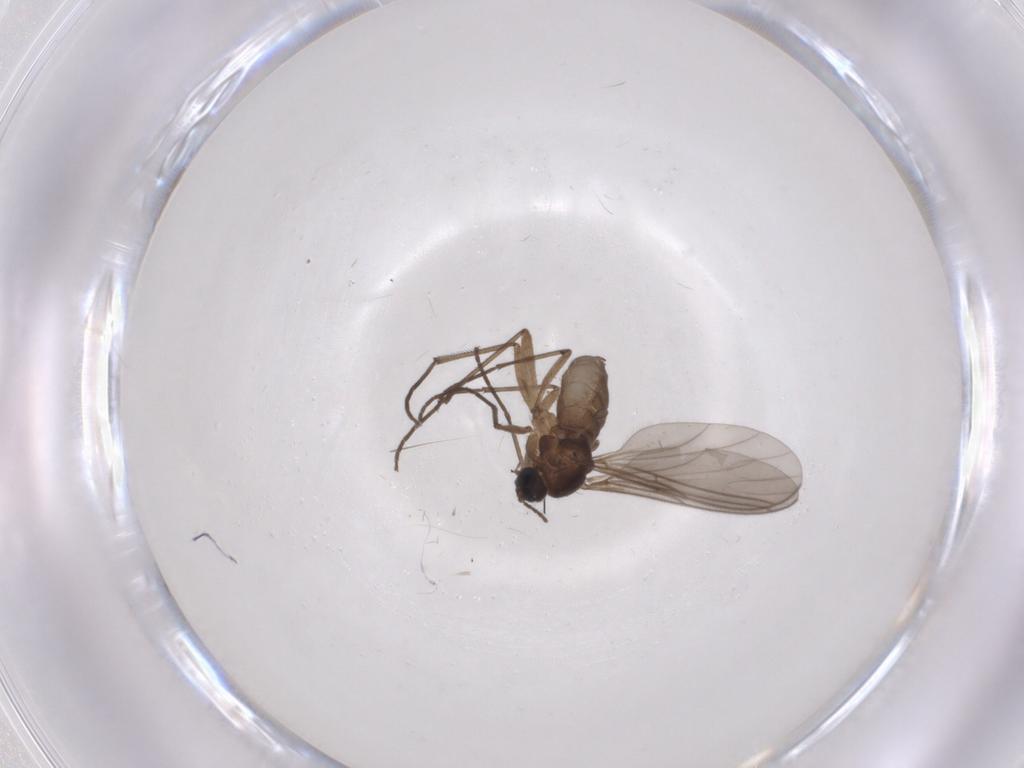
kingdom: Animalia
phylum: Arthropoda
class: Insecta
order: Diptera
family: Sciaridae
